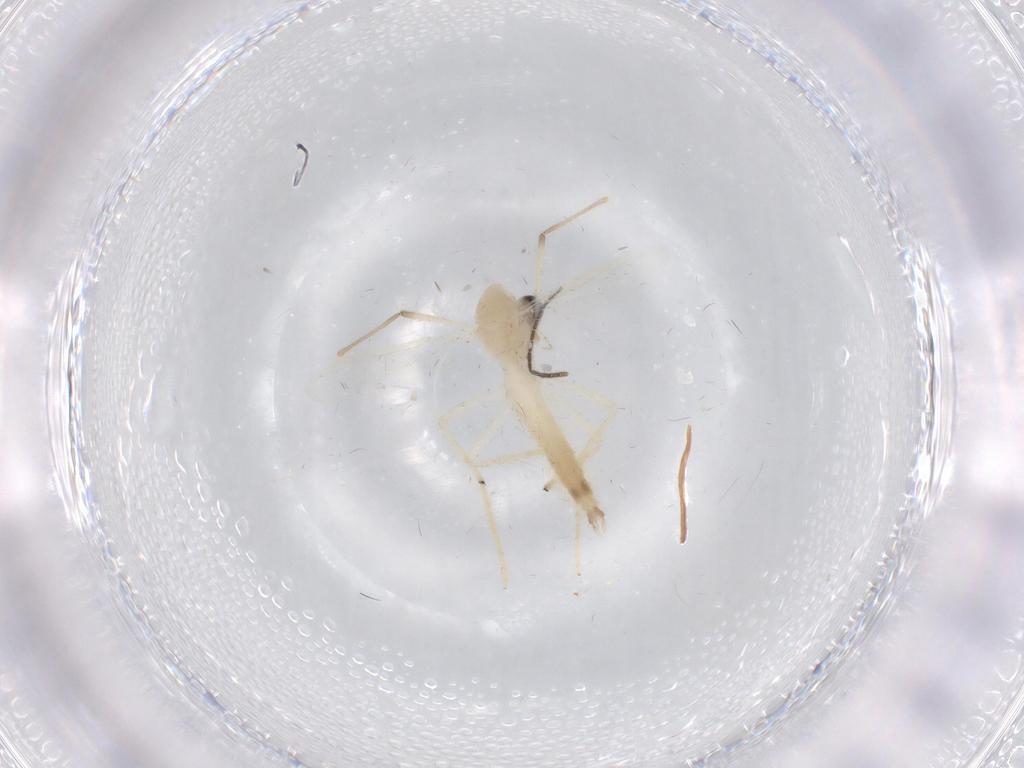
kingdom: Animalia
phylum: Arthropoda
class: Insecta
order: Diptera
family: Chironomidae
